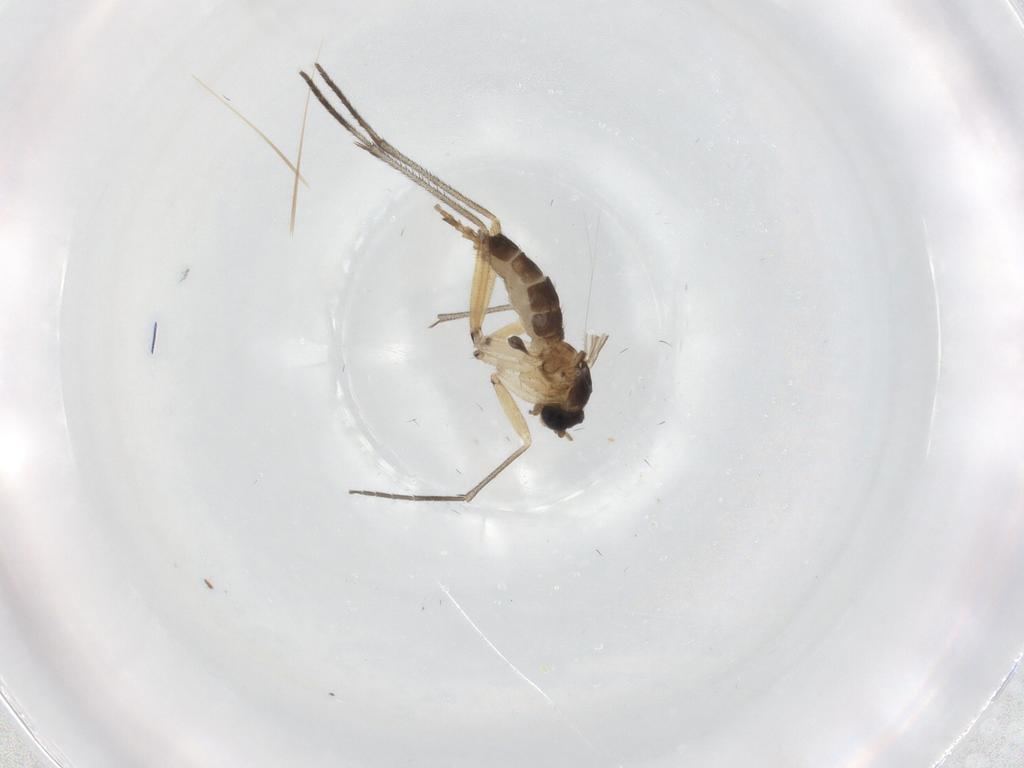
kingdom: Animalia
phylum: Arthropoda
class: Insecta
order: Diptera
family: Sciaridae
